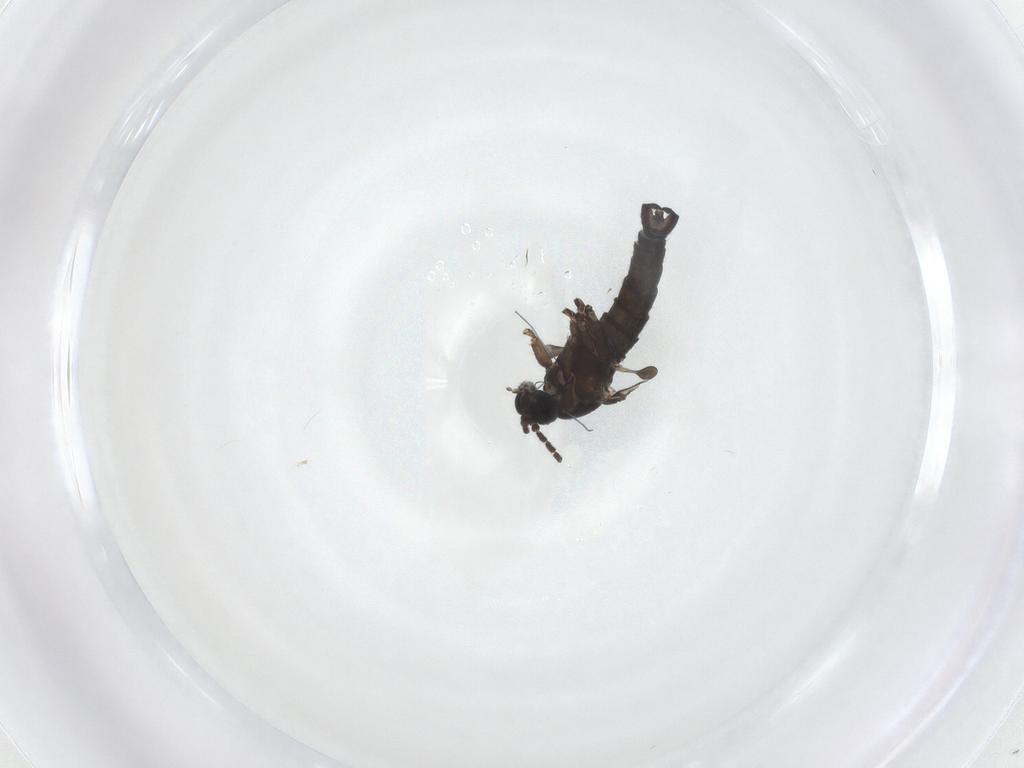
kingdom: Animalia
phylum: Arthropoda
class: Insecta
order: Diptera
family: Sciaridae
